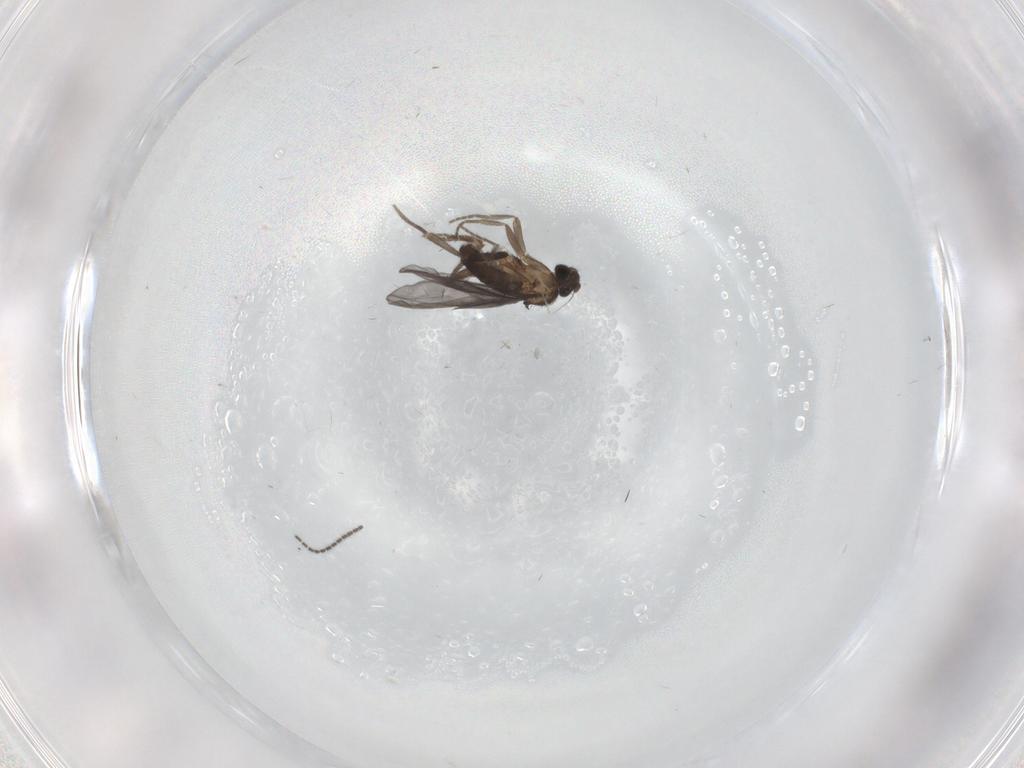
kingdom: Animalia
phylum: Arthropoda
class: Insecta
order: Diptera
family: Phoridae
